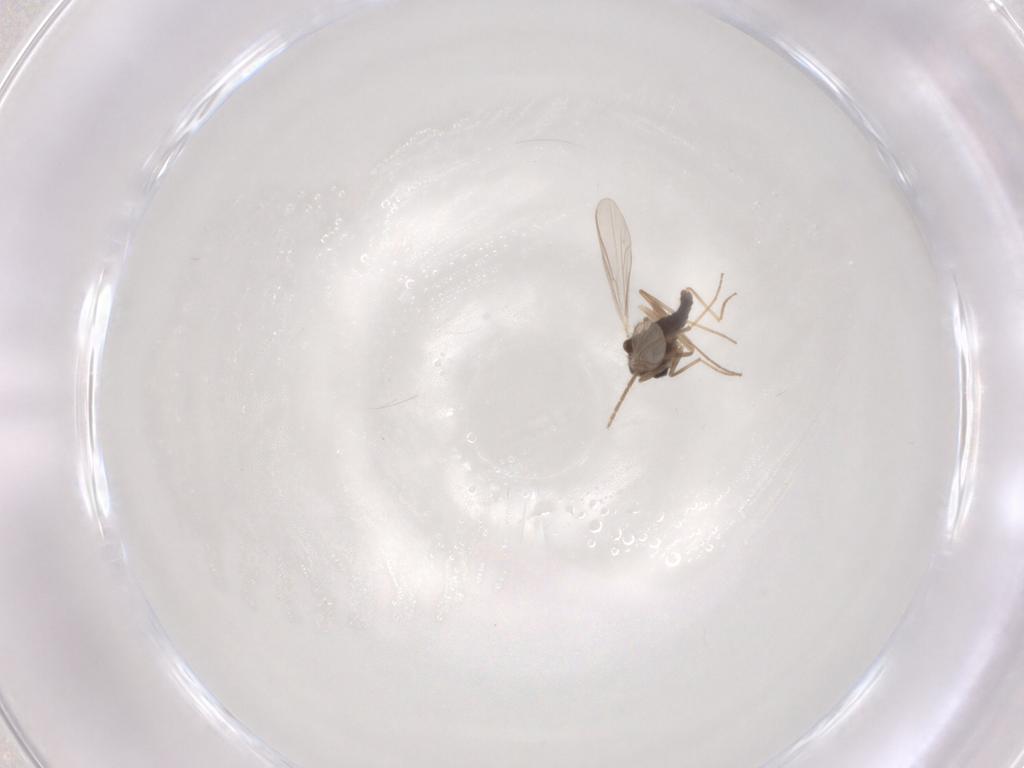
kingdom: Animalia
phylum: Arthropoda
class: Insecta
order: Diptera
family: Chironomidae
